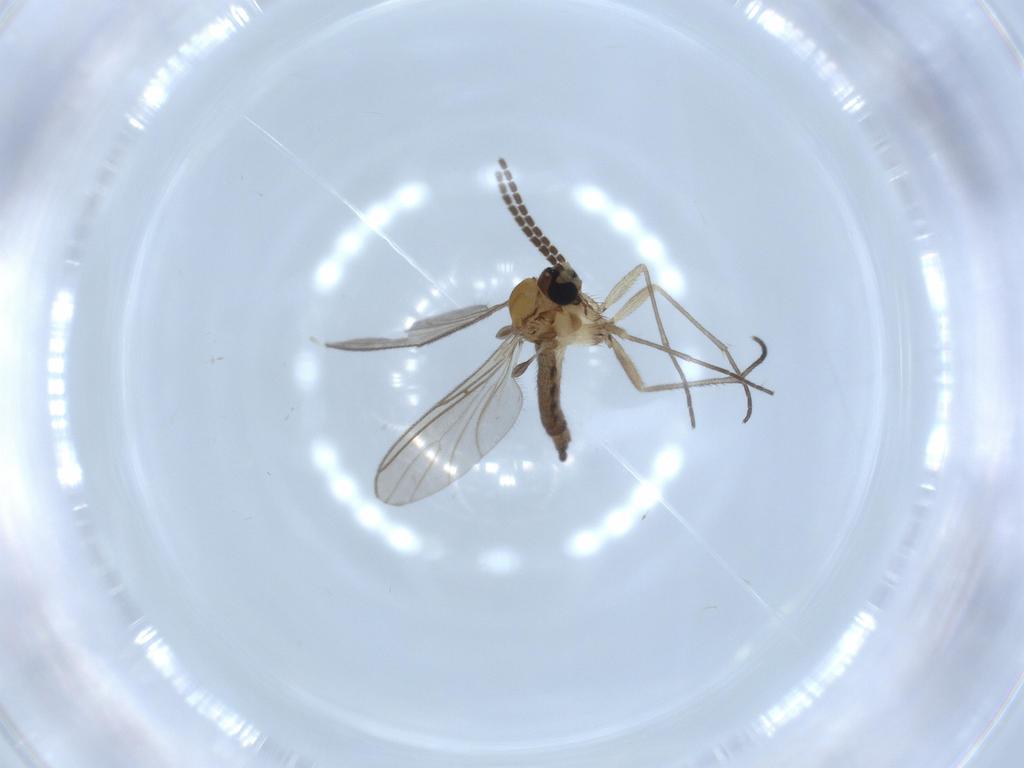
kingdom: Animalia
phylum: Arthropoda
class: Insecta
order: Diptera
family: Sciaridae
